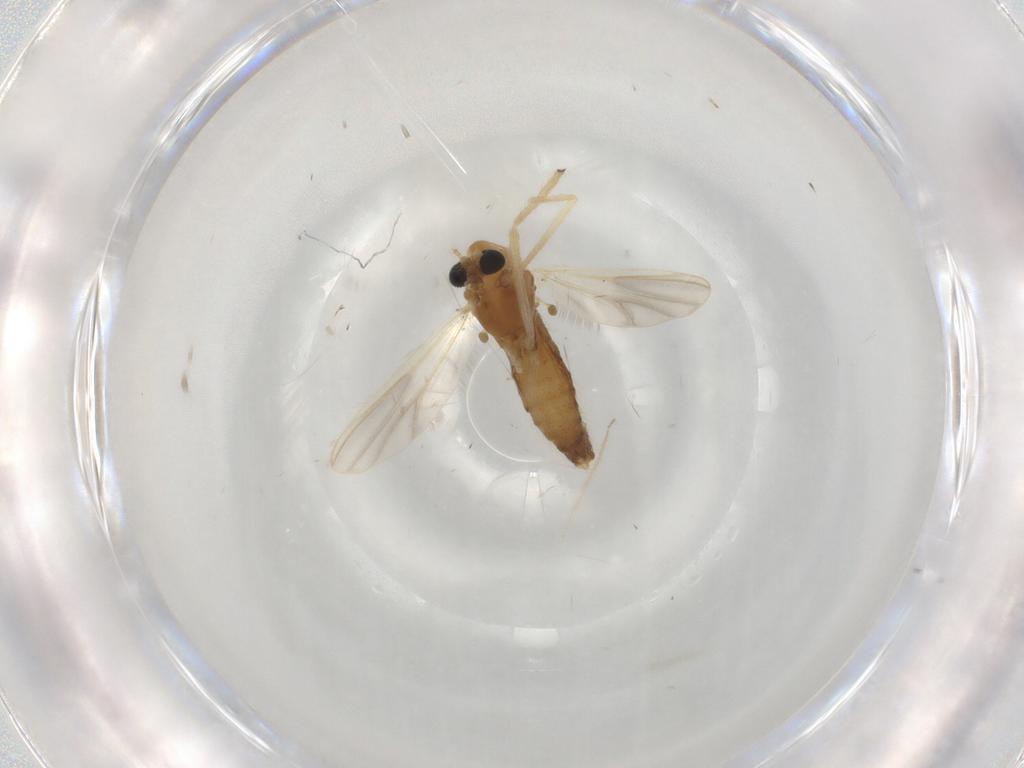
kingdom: Animalia
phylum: Arthropoda
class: Insecta
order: Diptera
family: Chironomidae
